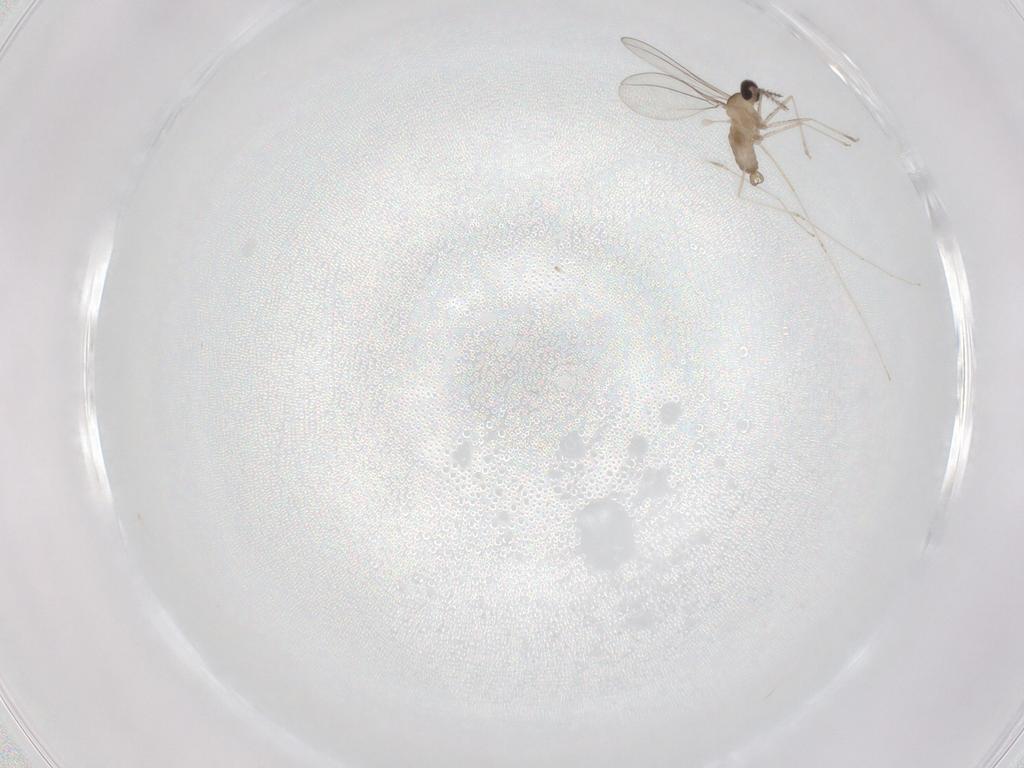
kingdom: Animalia
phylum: Arthropoda
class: Insecta
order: Diptera
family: Cecidomyiidae
